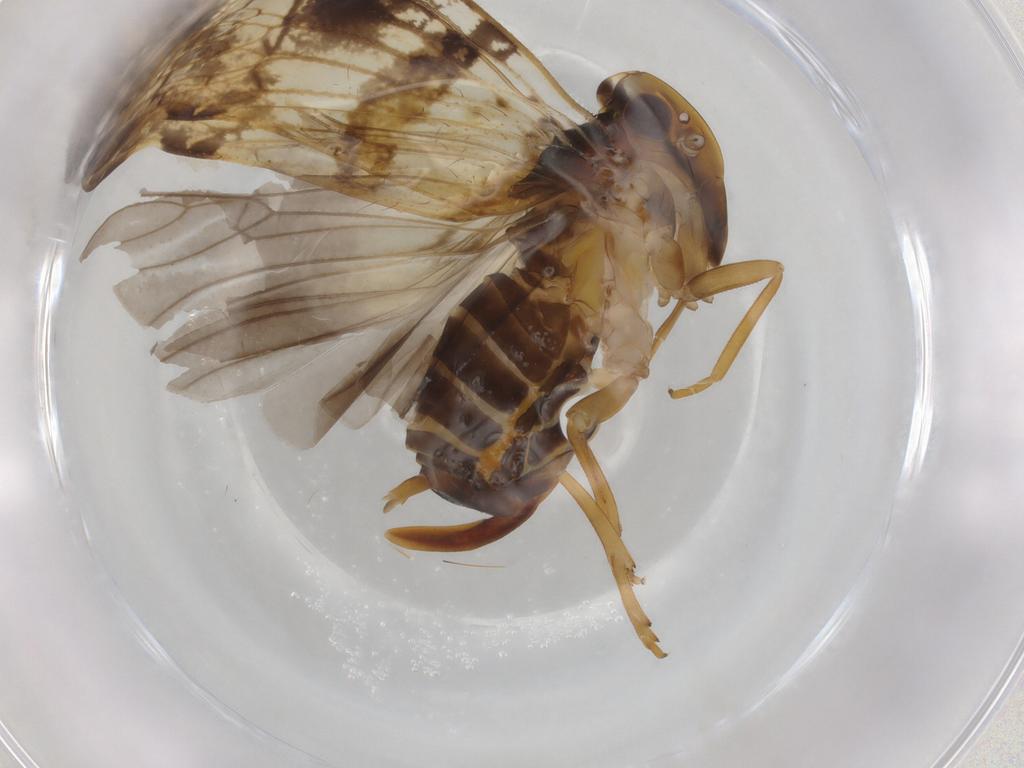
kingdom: Animalia
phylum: Arthropoda
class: Insecta
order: Hemiptera
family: Cixiidae
